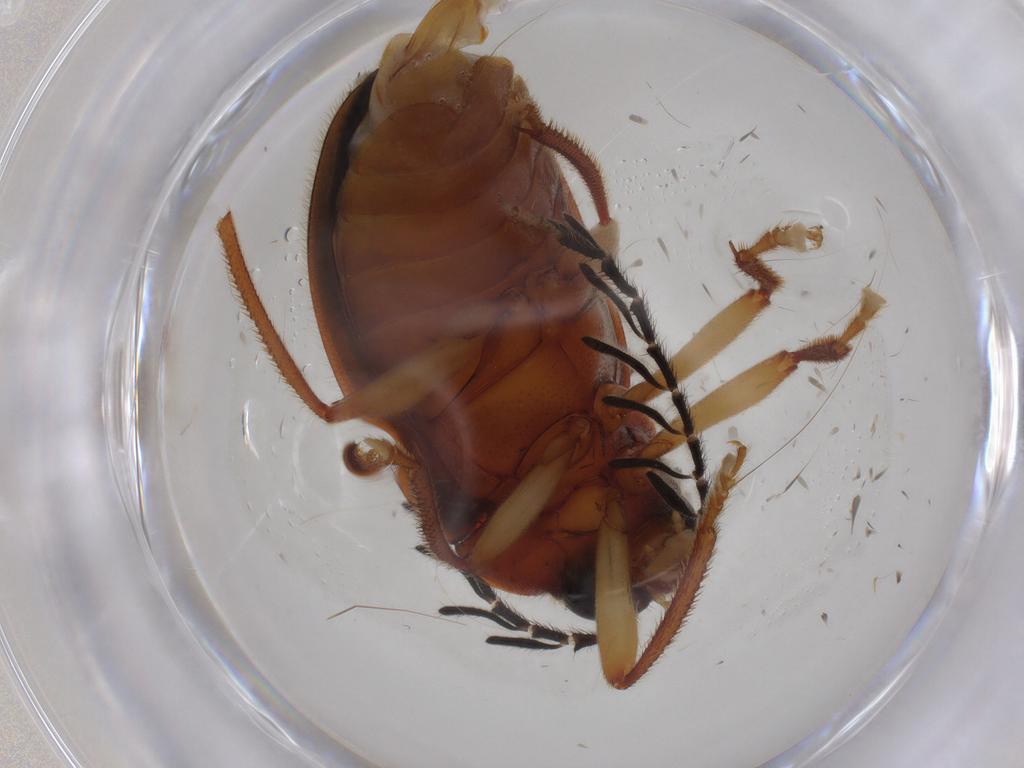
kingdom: Animalia
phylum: Arthropoda
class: Insecta
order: Coleoptera
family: Ptilodactylidae
